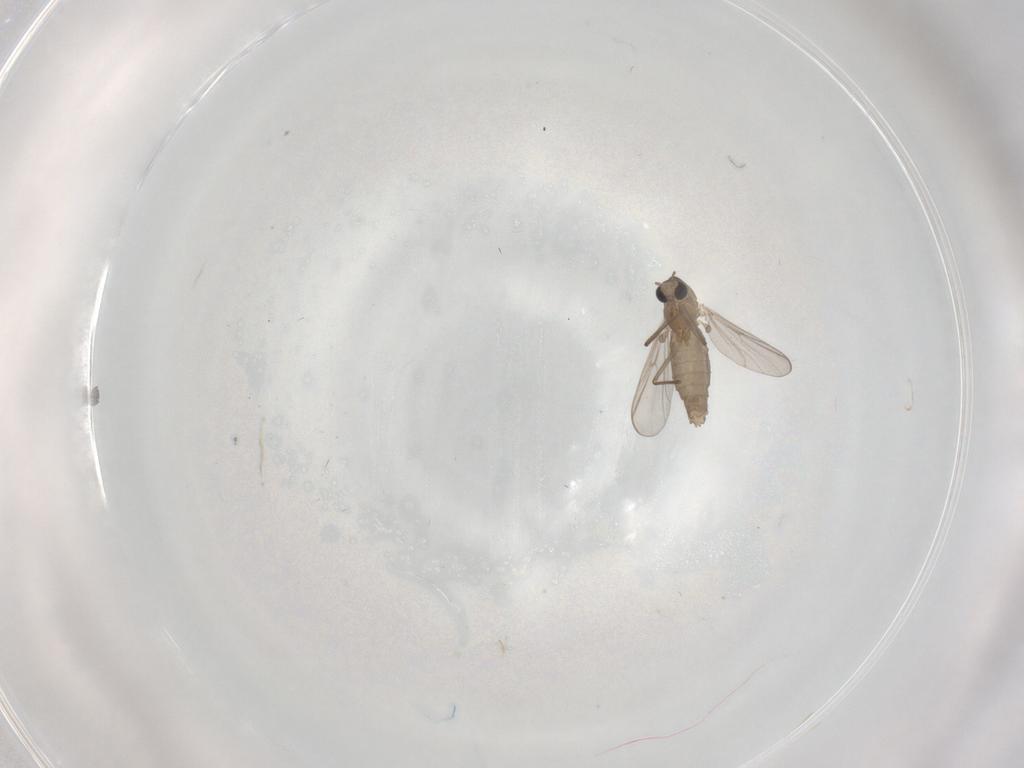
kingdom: Animalia
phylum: Arthropoda
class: Insecta
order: Diptera
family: Chironomidae
